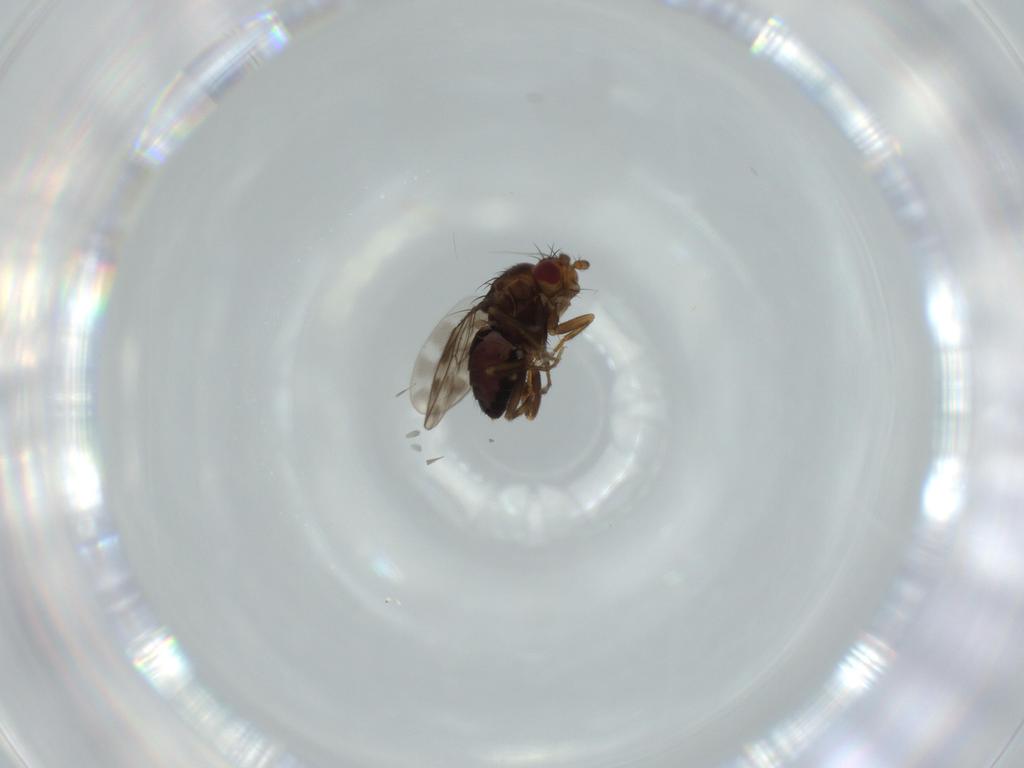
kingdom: Animalia
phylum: Arthropoda
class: Insecta
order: Diptera
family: Sphaeroceridae
